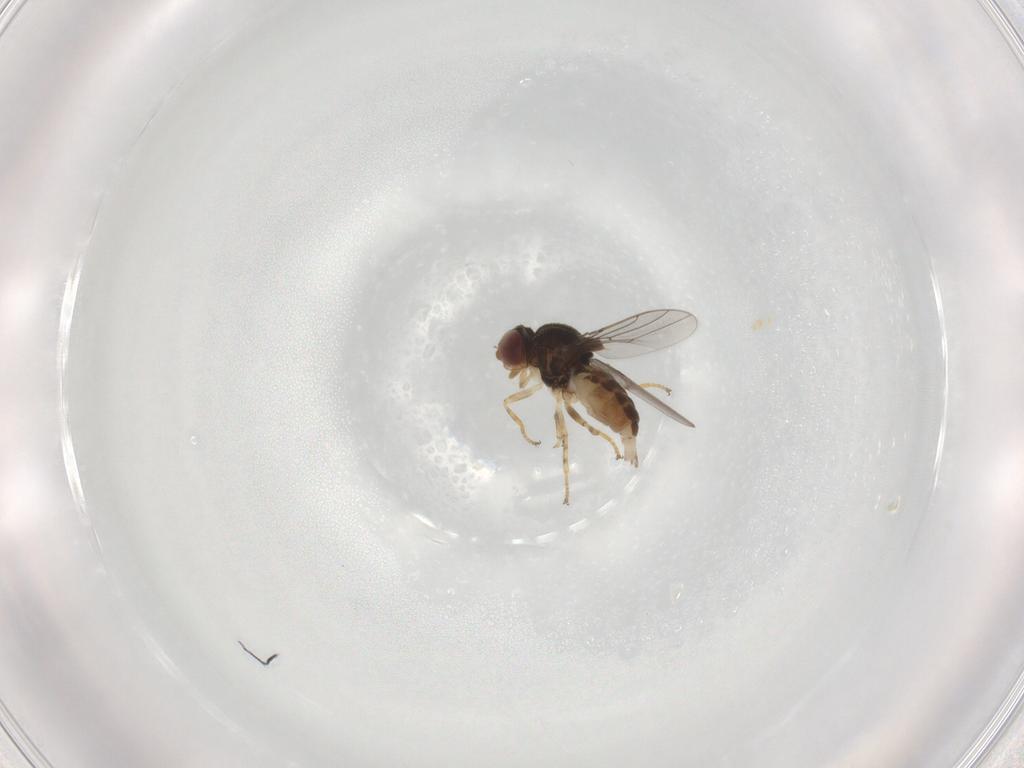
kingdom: Animalia
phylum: Arthropoda
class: Insecta
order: Diptera
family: Chloropidae
